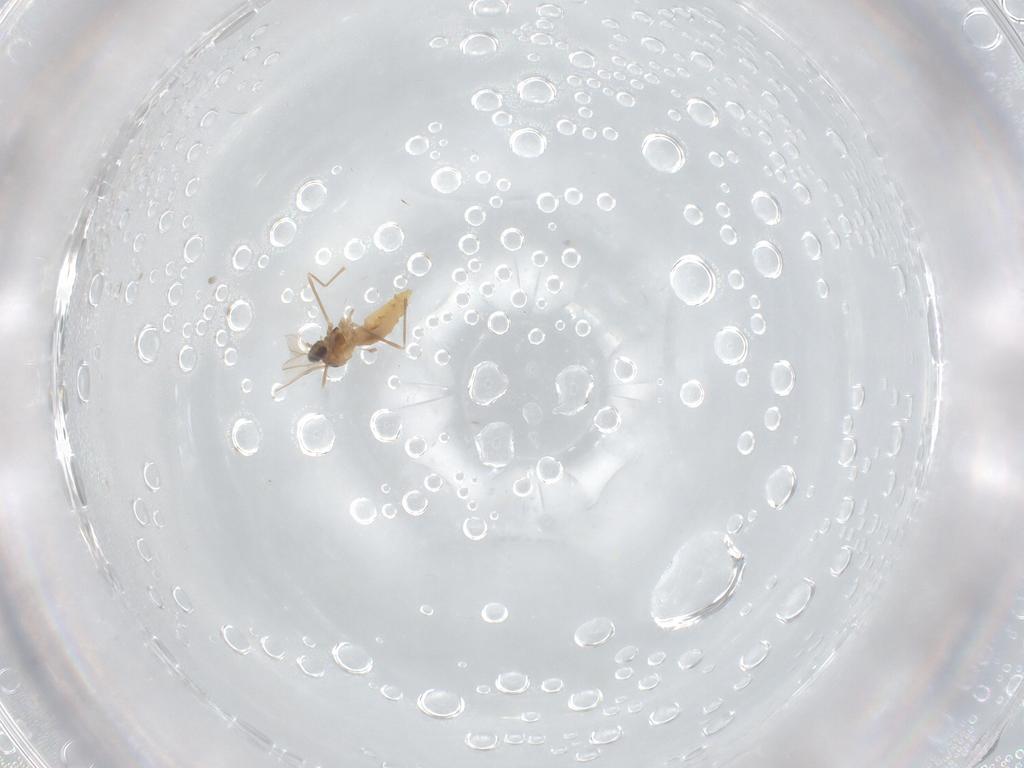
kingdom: Animalia
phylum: Arthropoda
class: Insecta
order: Diptera
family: Cecidomyiidae
